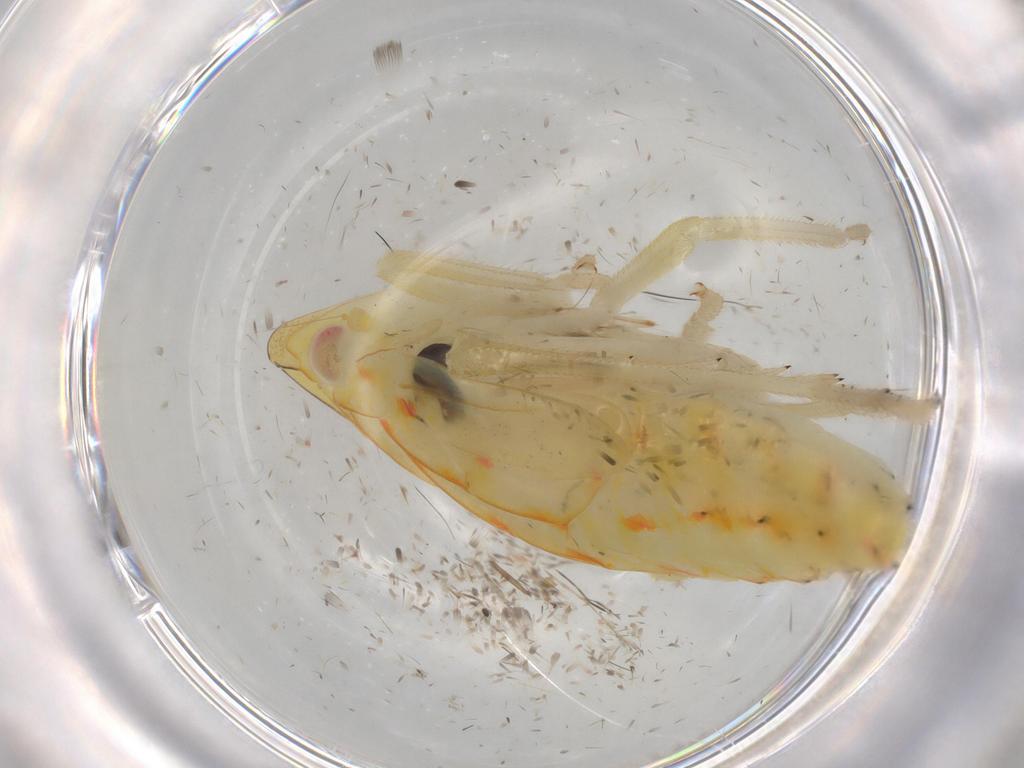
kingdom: Animalia
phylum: Arthropoda
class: Insecta
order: Hemiptera
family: Tropiduchidae
